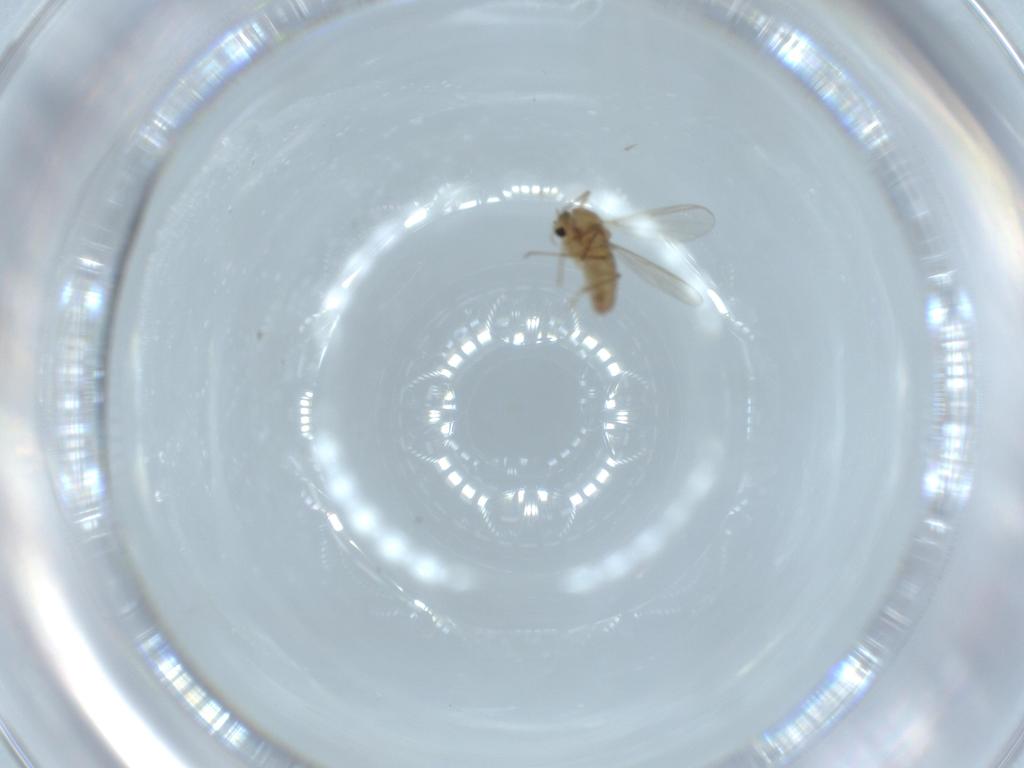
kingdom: Animalia
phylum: Arthropoda
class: Insecta
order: Diptera
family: Chironomidae
